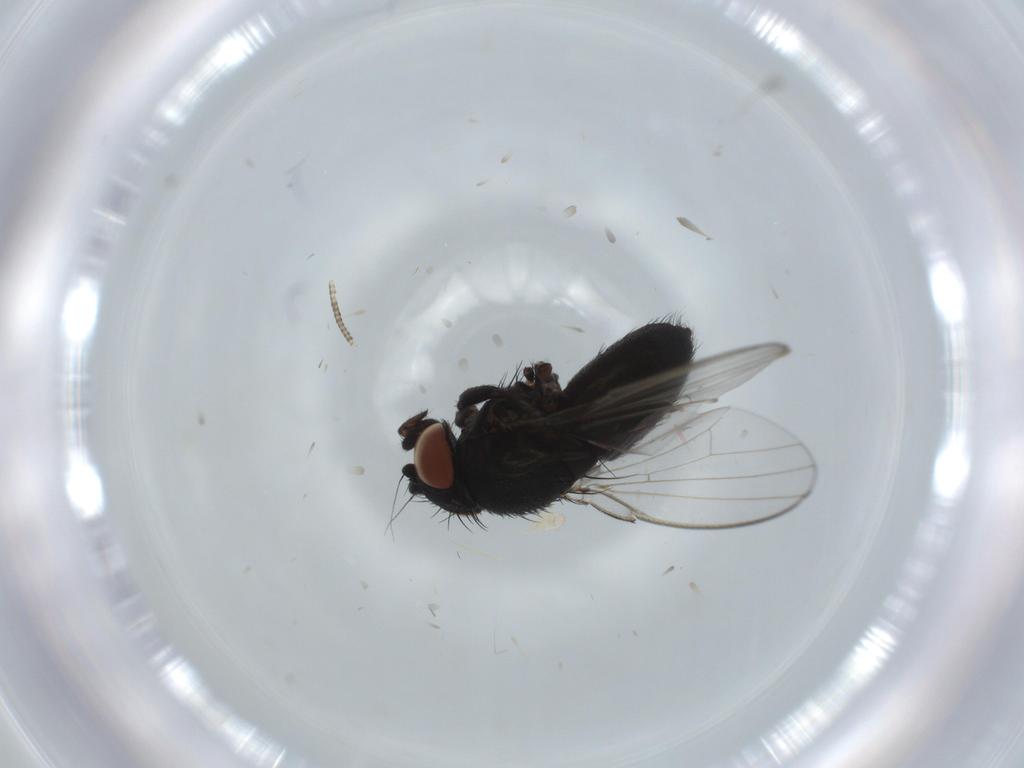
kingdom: Animalia
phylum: Arthropoda
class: Insecta
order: Diptera
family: Milichiidae
